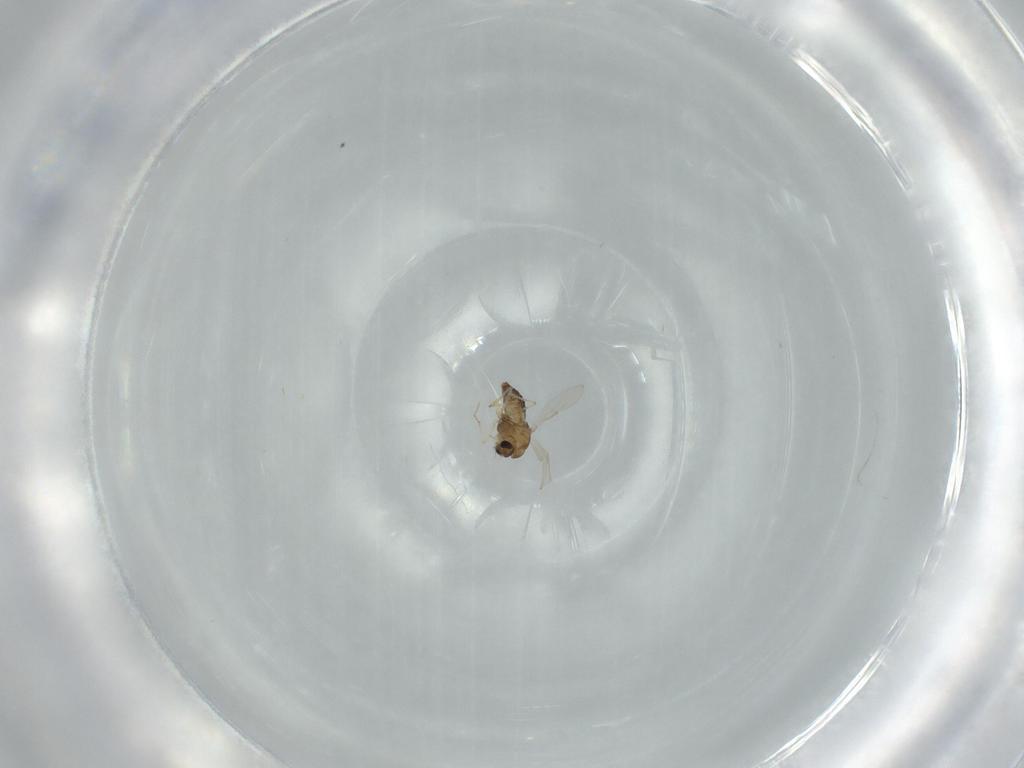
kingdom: Animalia
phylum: Arthropoda
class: Insecta
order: Diptera
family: Chironomidae
